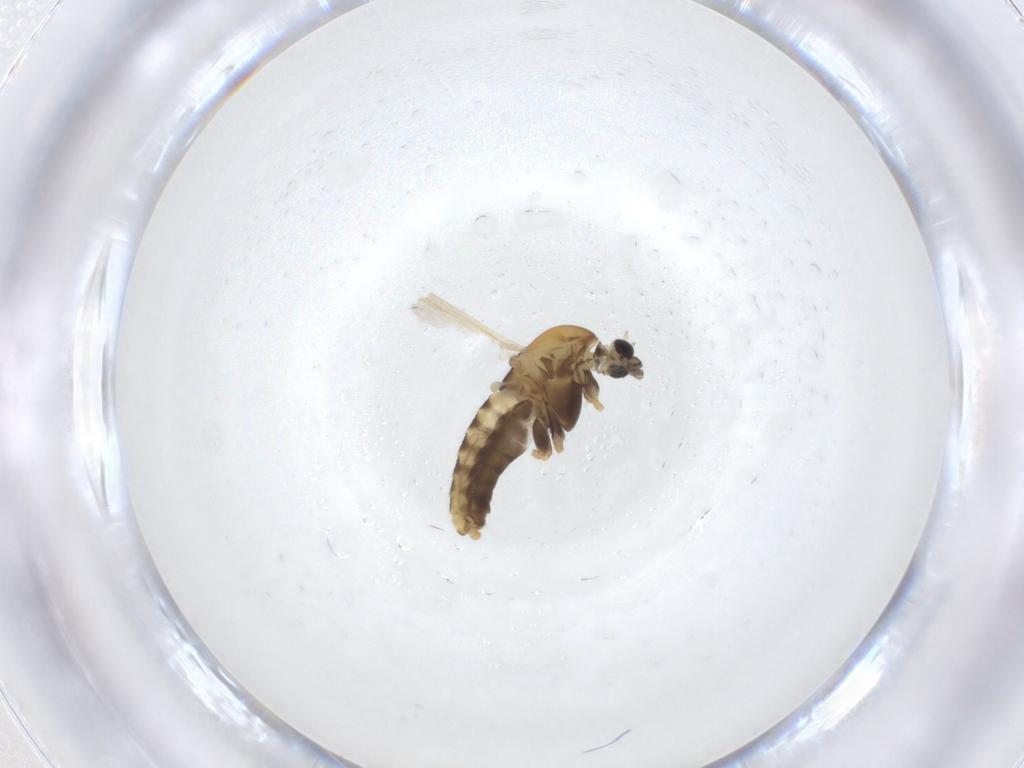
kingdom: Animalia
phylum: Arthropoda
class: Insecta
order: Diptera
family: Chironomidae
